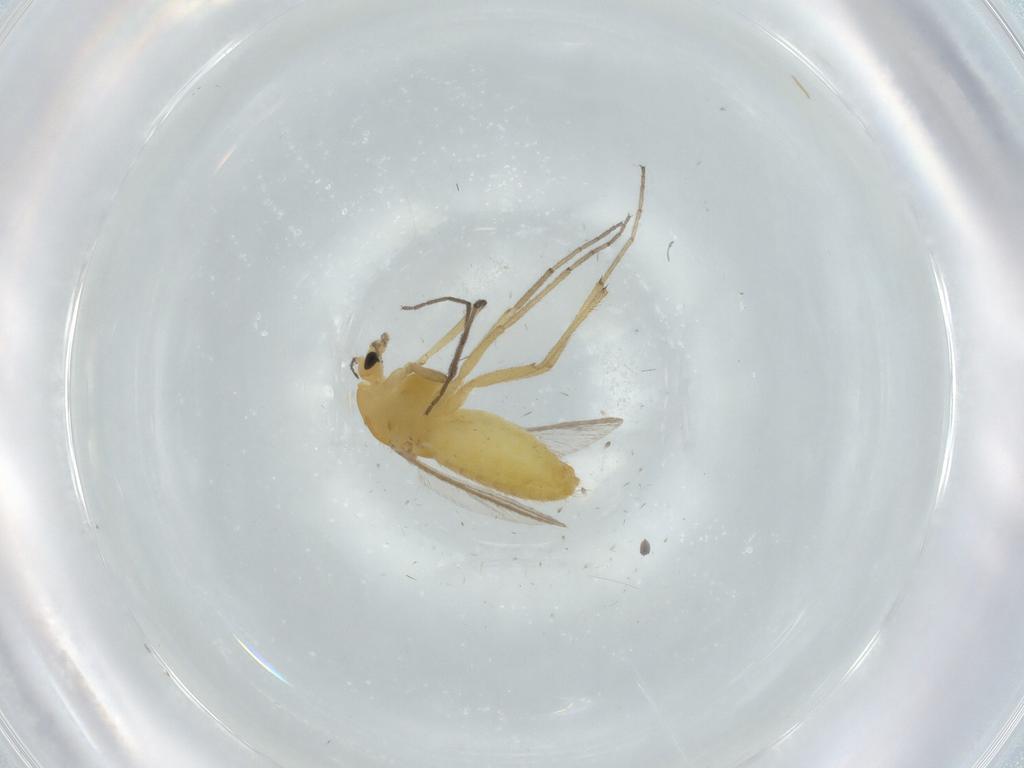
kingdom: Animalia
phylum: Arthropoda
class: Insecta
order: Diptera
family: Chironomidae
